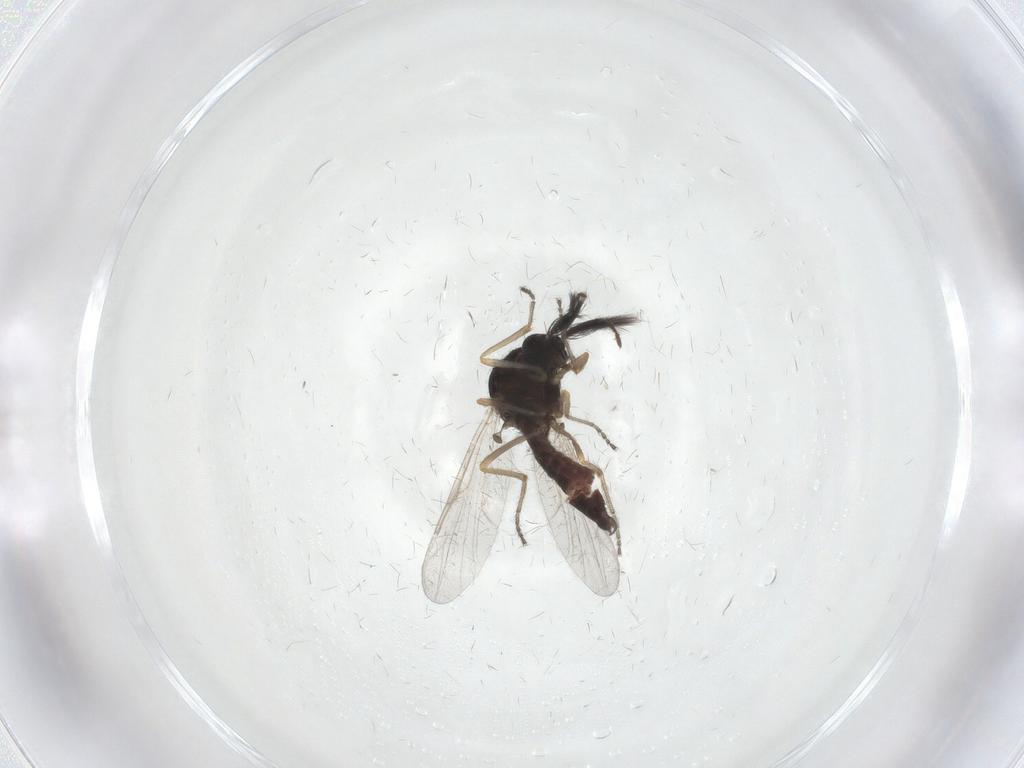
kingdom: Animalia
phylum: Arthropoda
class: Insecta
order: Diptera
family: Ceratopogonidae
